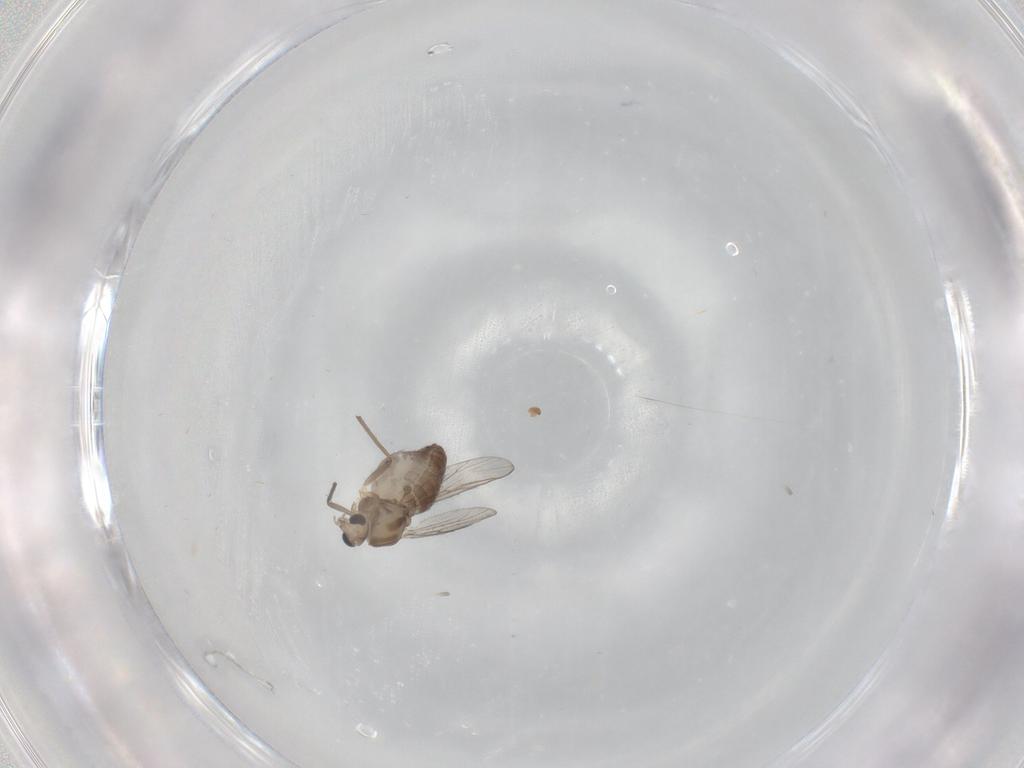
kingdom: Animalia
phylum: Arthropoda
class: Insecta
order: Diptera
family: Chironomidae
